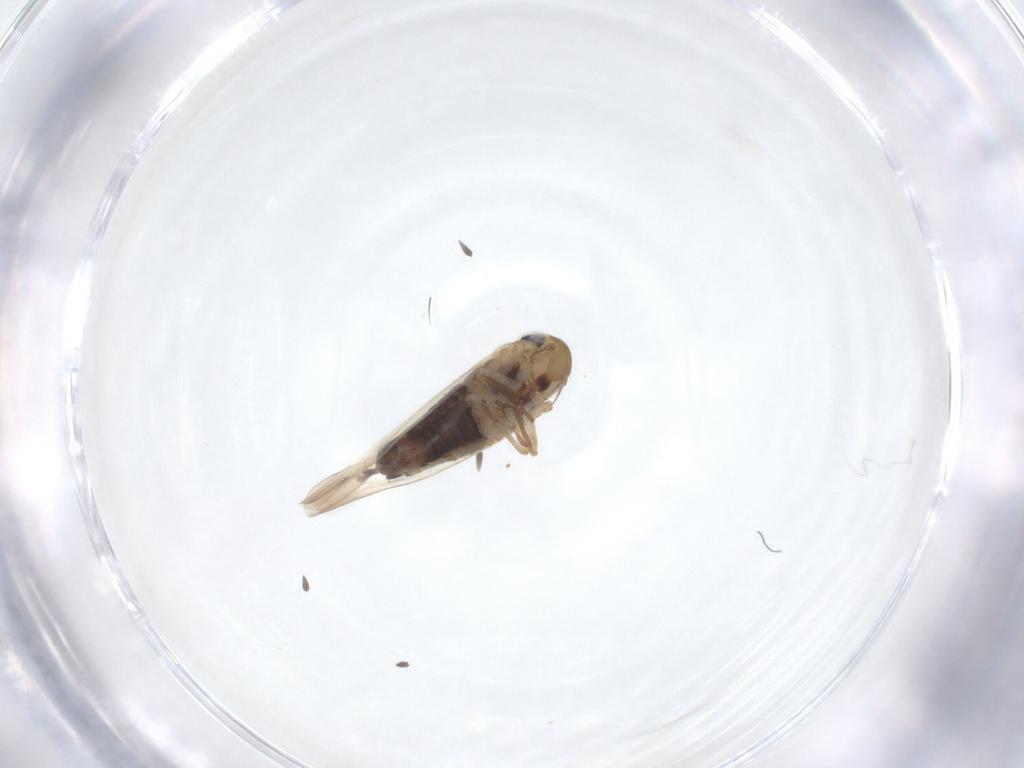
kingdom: Animalia
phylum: Arthropoda
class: Insecta
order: Hemiptera
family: Cicadellidae
